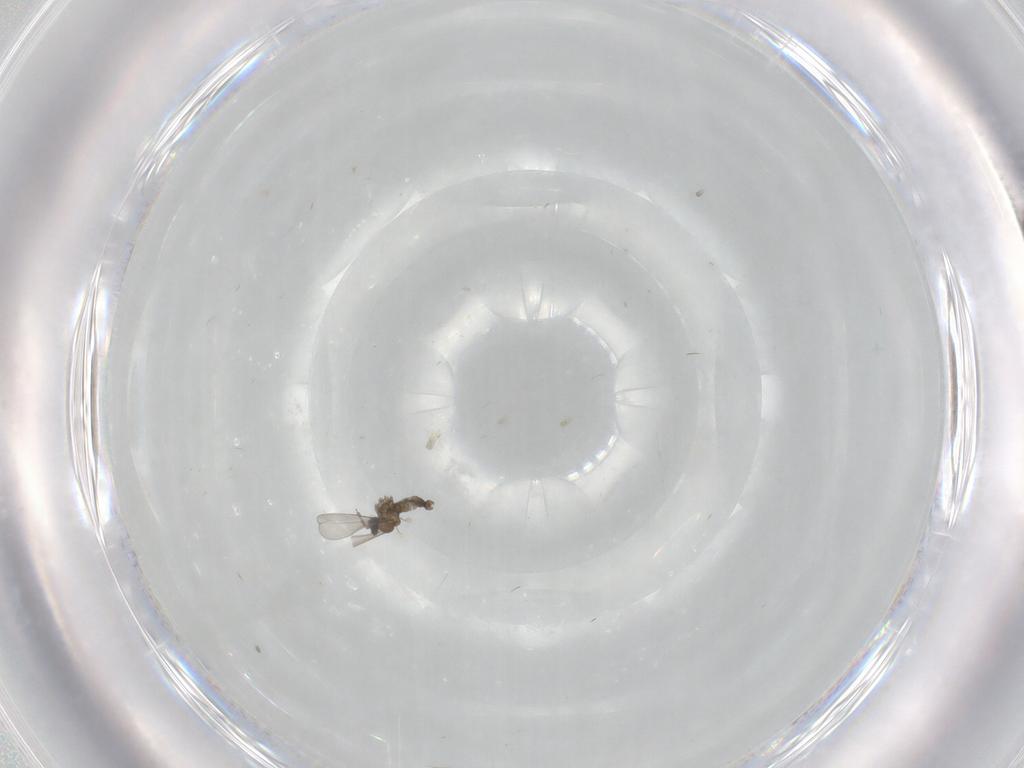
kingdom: Animalia
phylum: Arthropoda
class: Insecta
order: Diptera
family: Cecidomyiidae
